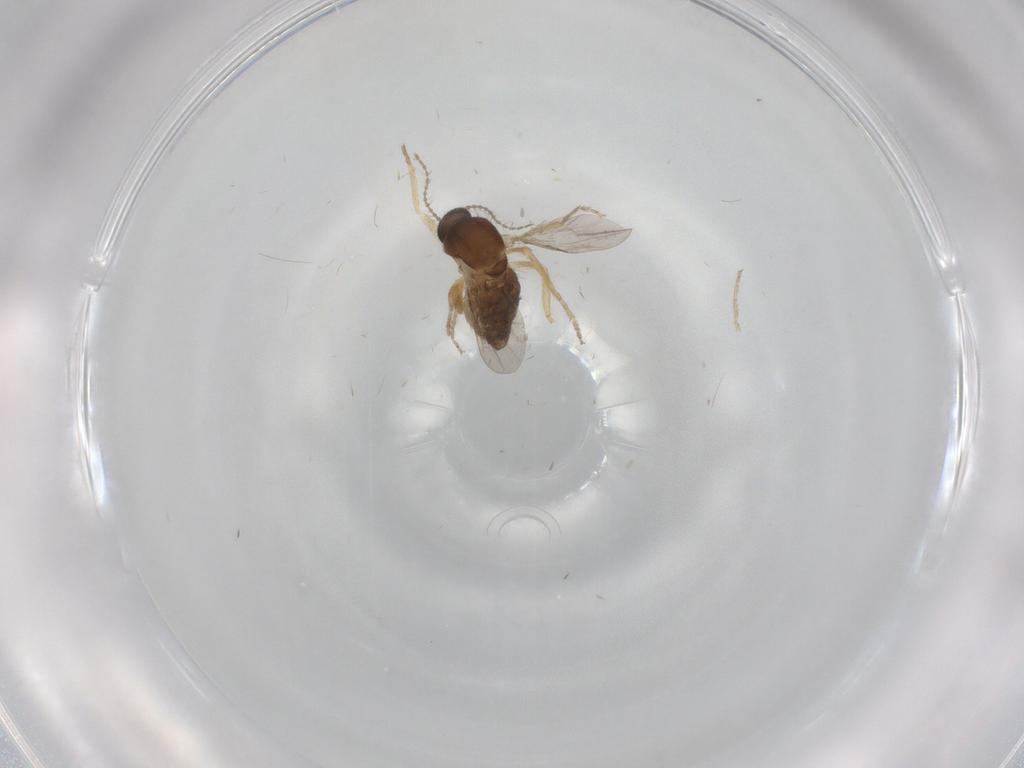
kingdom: Animalia
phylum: Arthropoda
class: Insecta
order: Diptera
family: Ceratopogonidae
